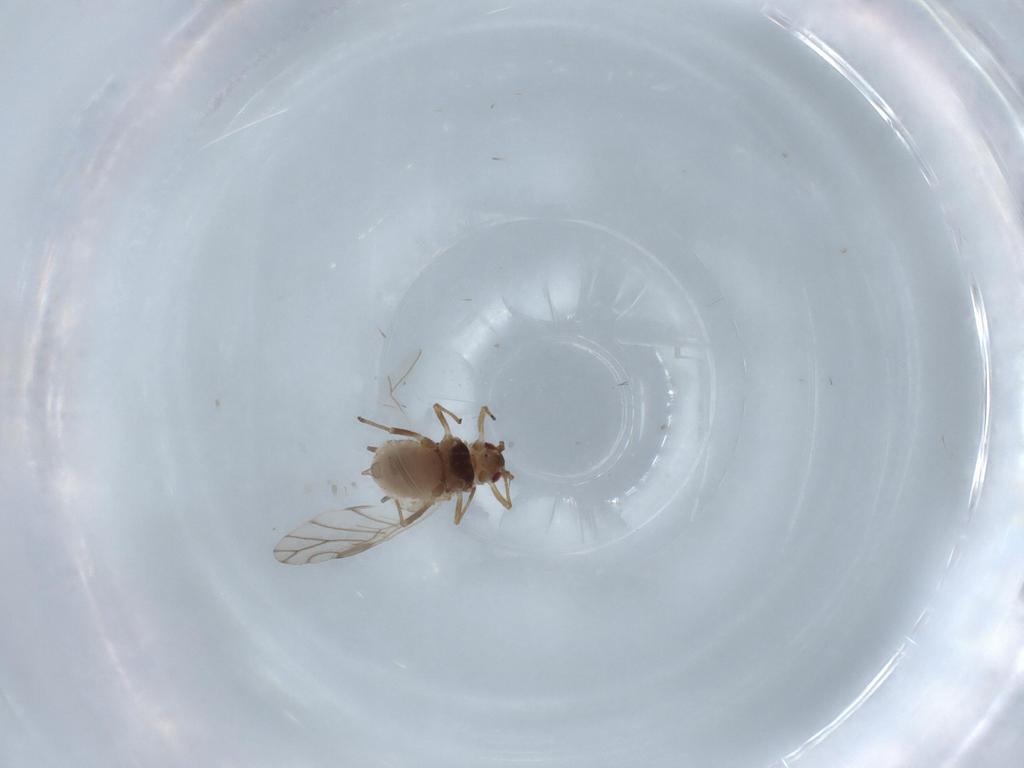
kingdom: Animalia
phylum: Arthropoda
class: Insecta
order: Hemiptera
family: Aphididae
